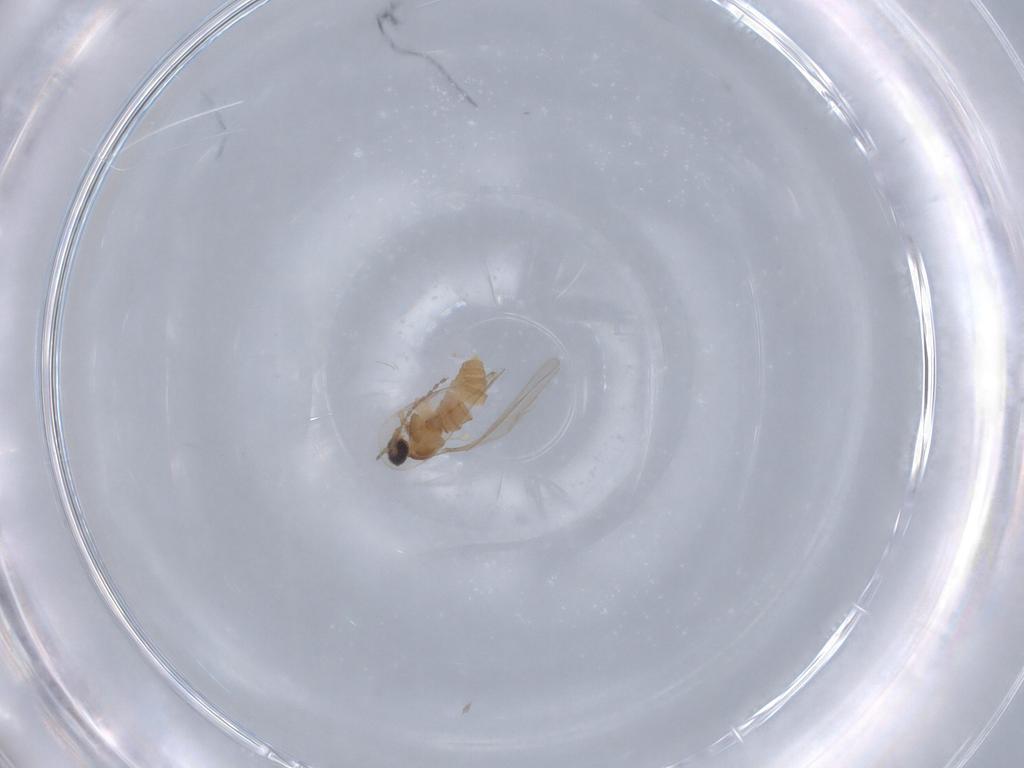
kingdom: Animalia
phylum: Arthropoda
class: Insecta
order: Diptera
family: Cecidomyiidae
